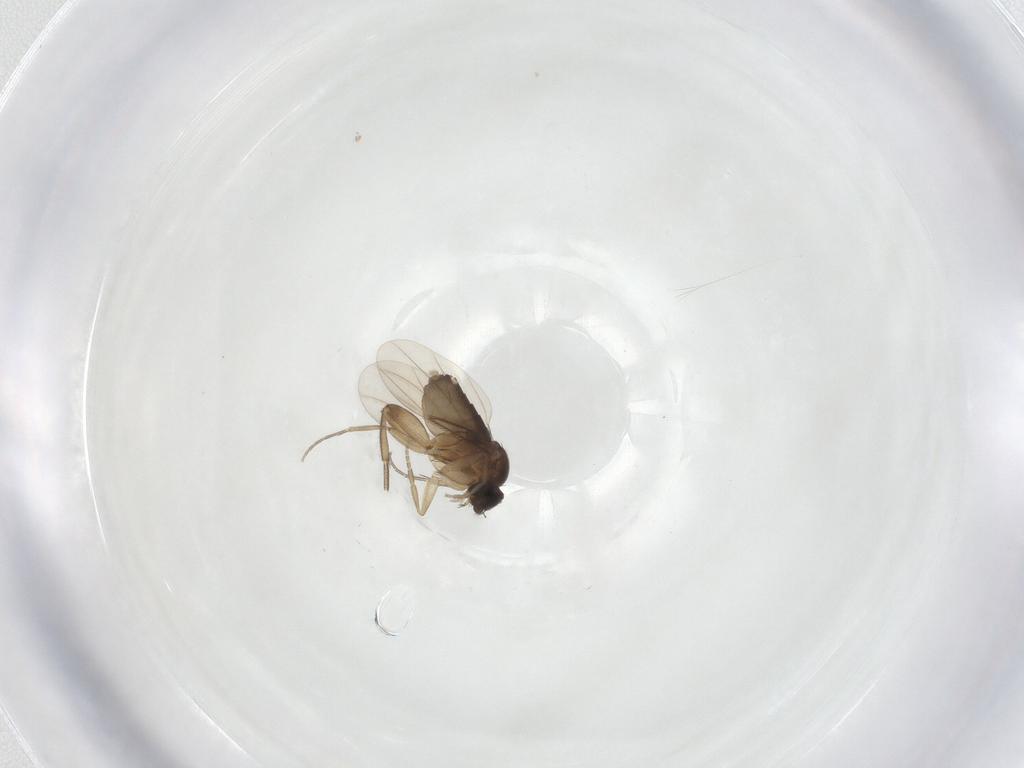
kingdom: Animalia
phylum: Arthropoda
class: Insecta
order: Diptera
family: Phoridae
